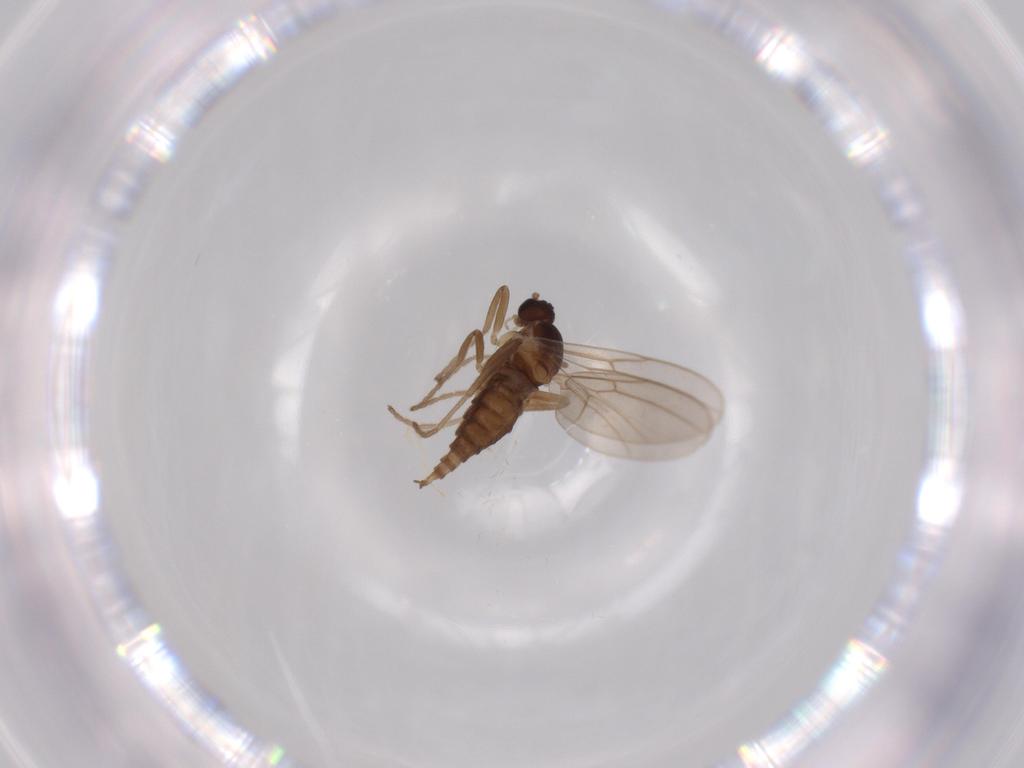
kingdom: Animalia
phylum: Arthropoda
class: Insecta
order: Diptera
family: Cecidomyiidae
